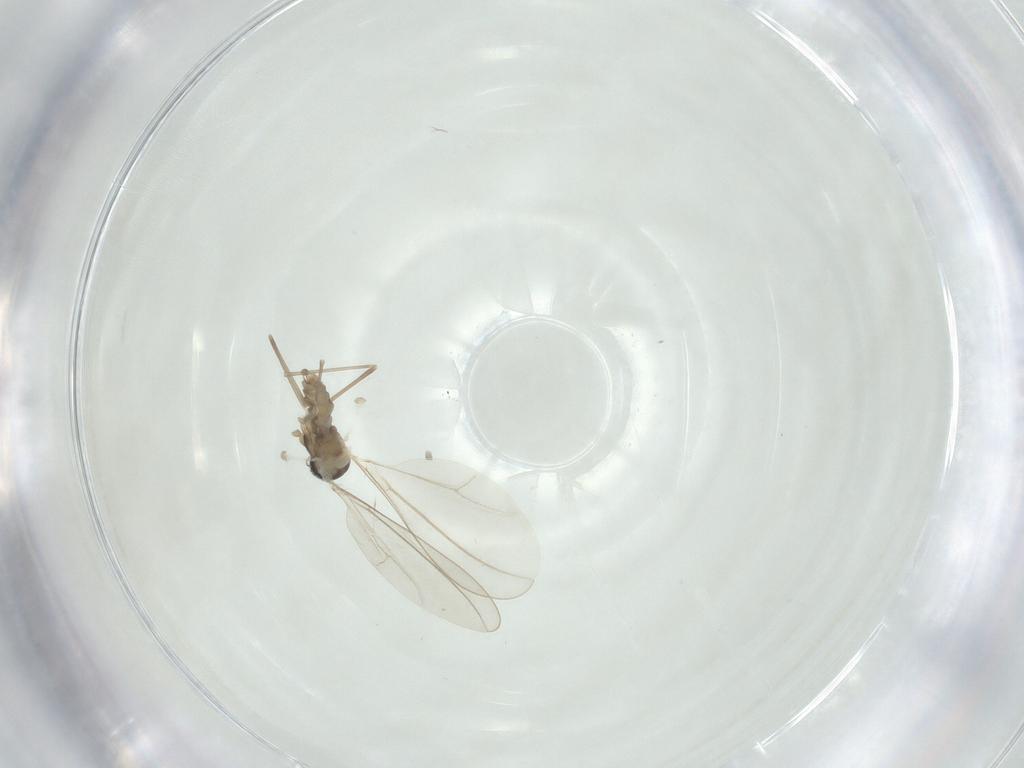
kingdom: Animalia
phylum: Arthropoda
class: Insecta
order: Diptera
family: Cecidomyiidae
